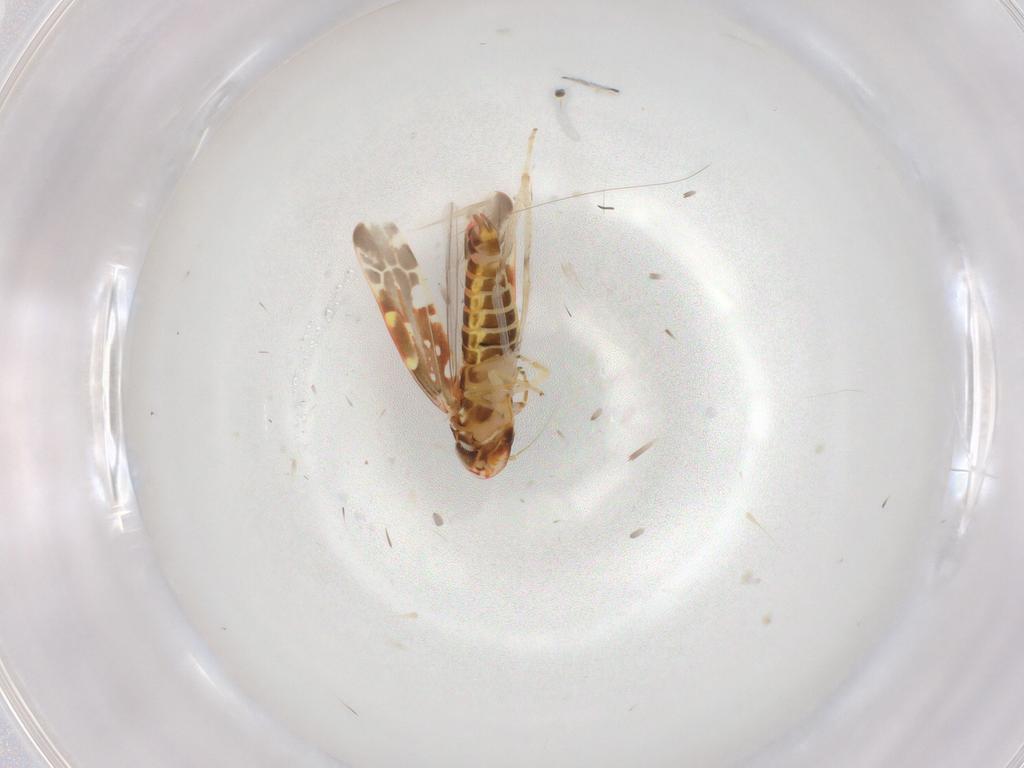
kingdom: Animalia
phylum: Arthropoda
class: Insecta
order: Hemiptera
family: Cicadellidae
